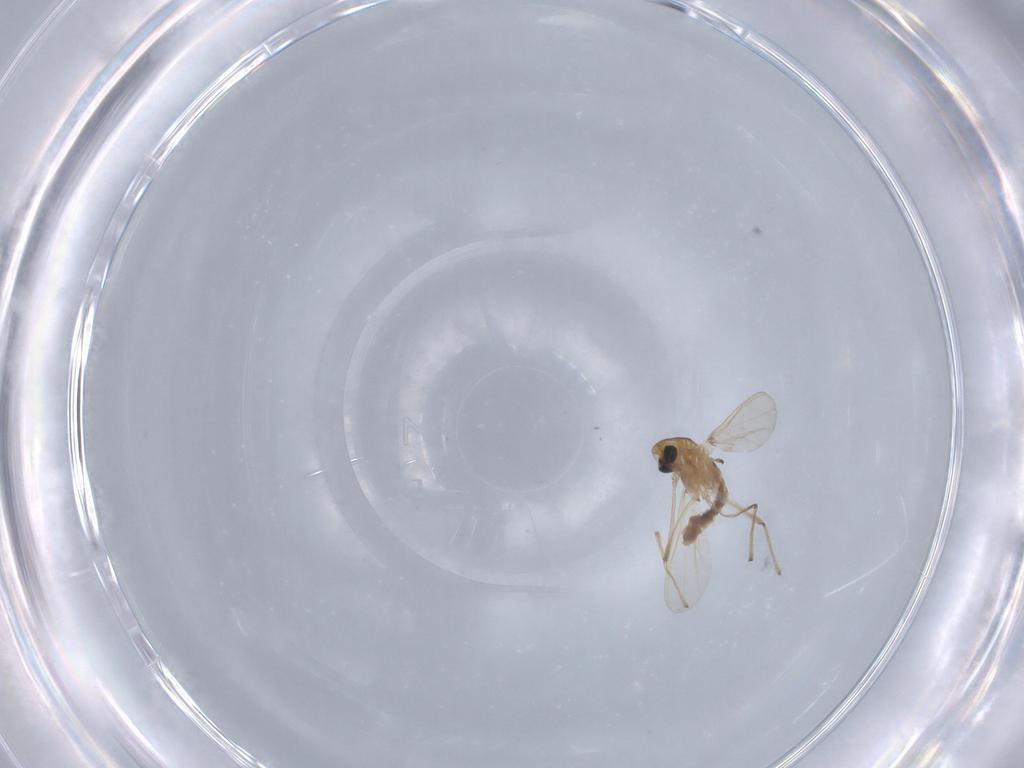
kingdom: Animalia
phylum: Arthropoda
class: Insecta
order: Diptera
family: Ceratopogonidae
